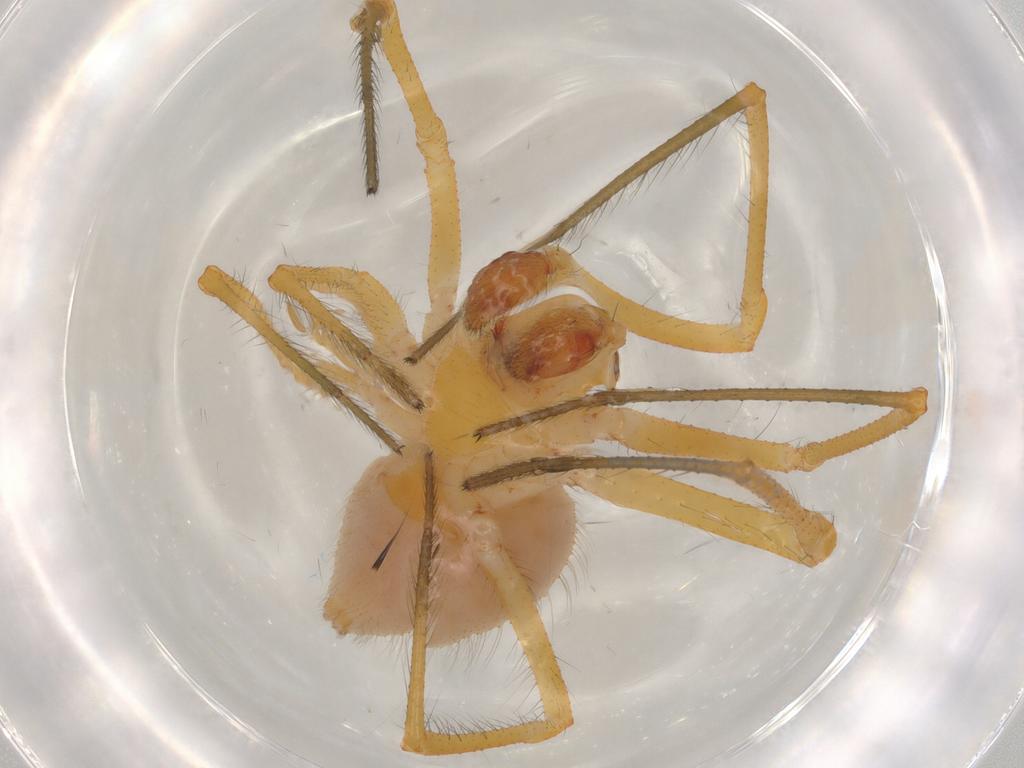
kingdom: Animalia
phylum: Arthropoda
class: Arachnida
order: Araneae
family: Theridiidae
